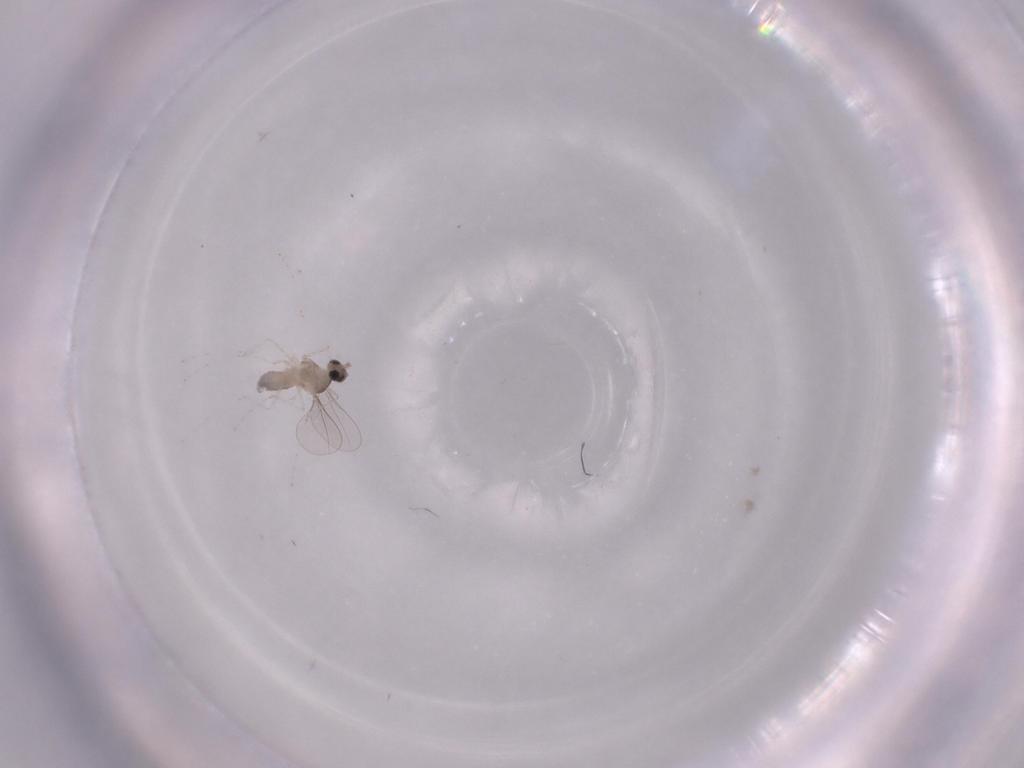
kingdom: Animalia
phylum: Arthropoda
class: Insecta
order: Diptera
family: Cecidomyiidae
